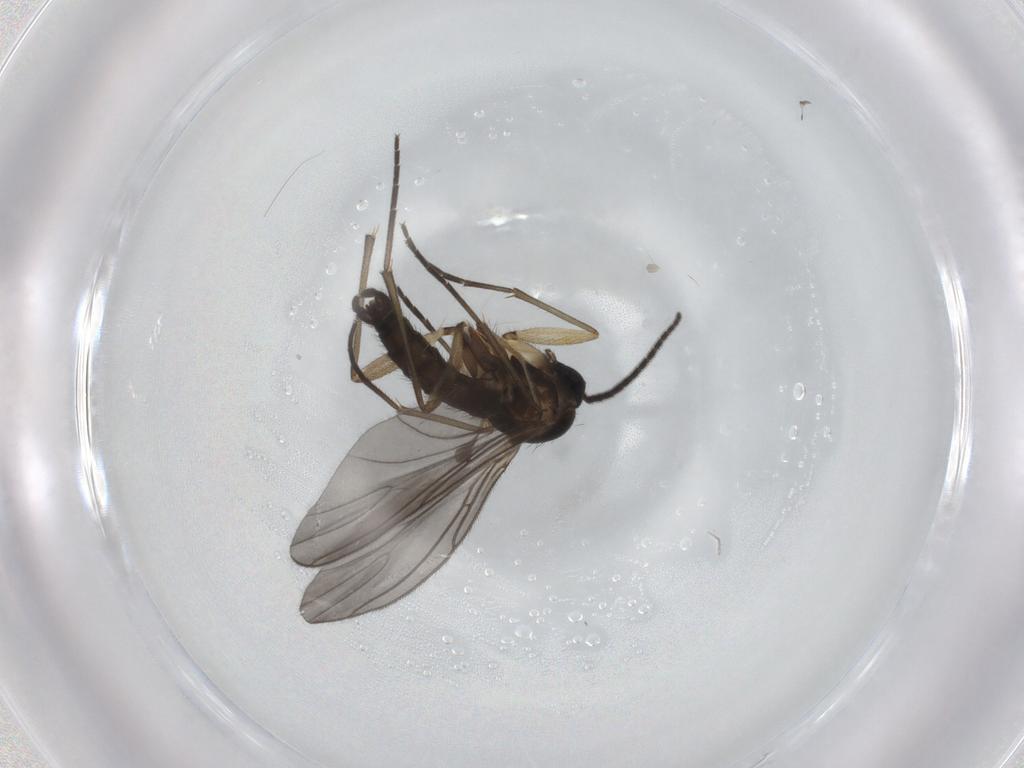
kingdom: Animalia
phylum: Arthropoda
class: Insecta
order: Diptera
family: Sciaridae
